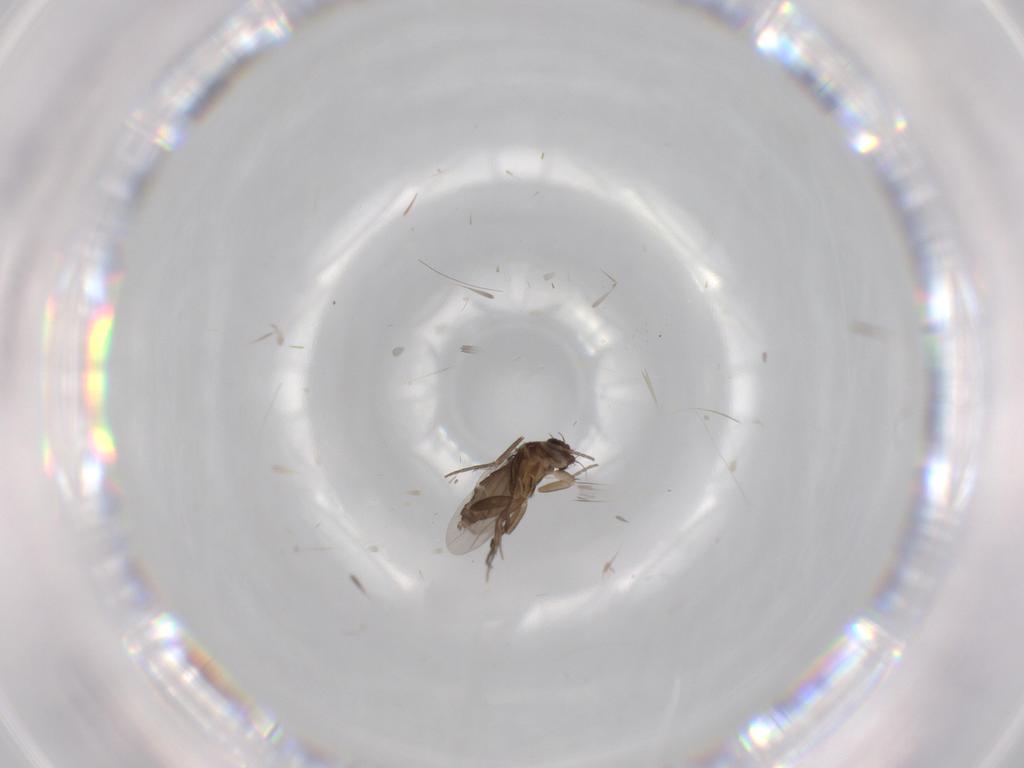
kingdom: Animalia
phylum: Arthropoda
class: Insecta
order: Diptera
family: Phoridae
